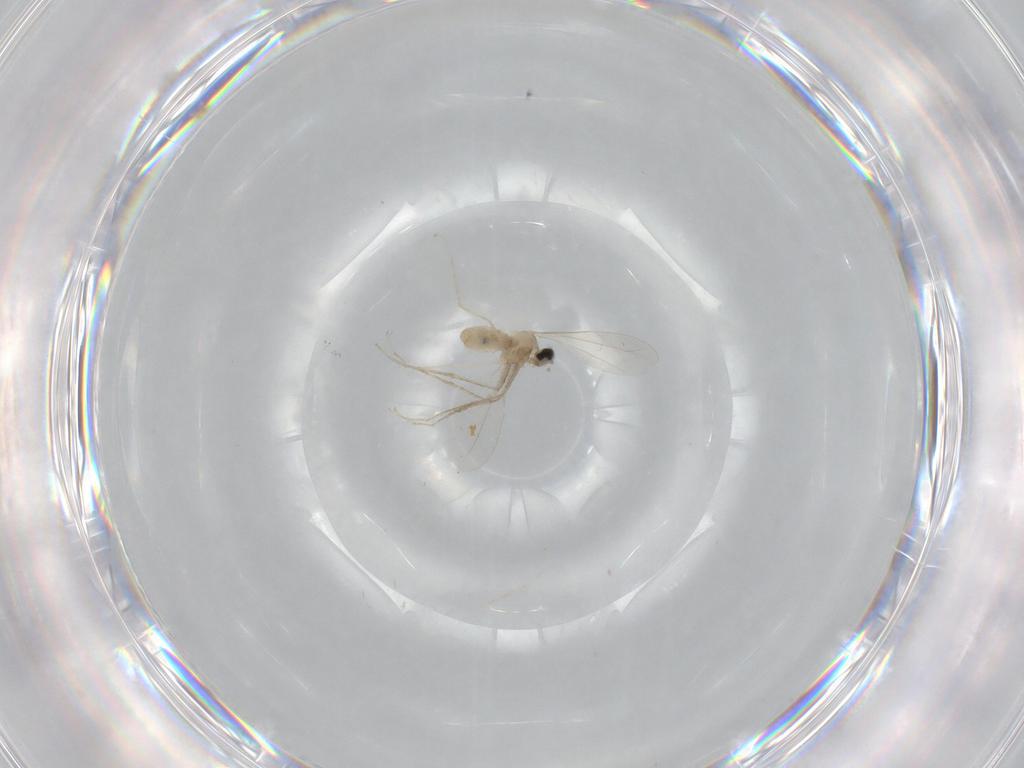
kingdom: Animalia
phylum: Arthropoda
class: Insecta
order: Diptera
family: Cecidomyiidae
